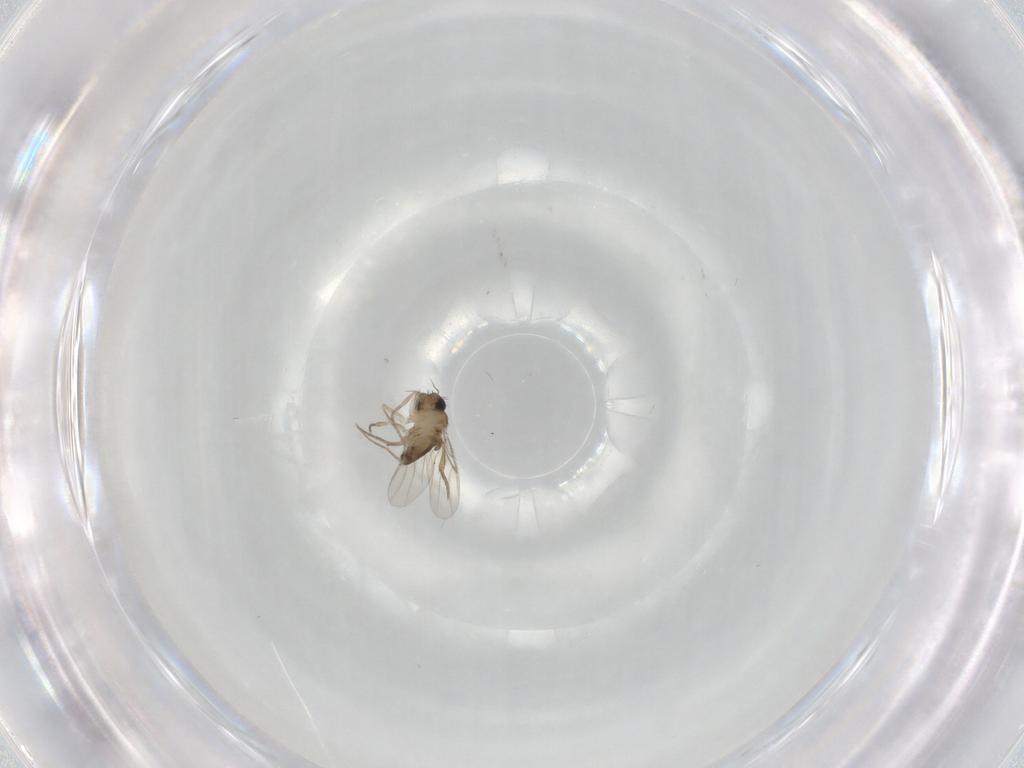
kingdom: Animalia
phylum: Arthropoda
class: Insecta
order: Diptera
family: Phoridae
